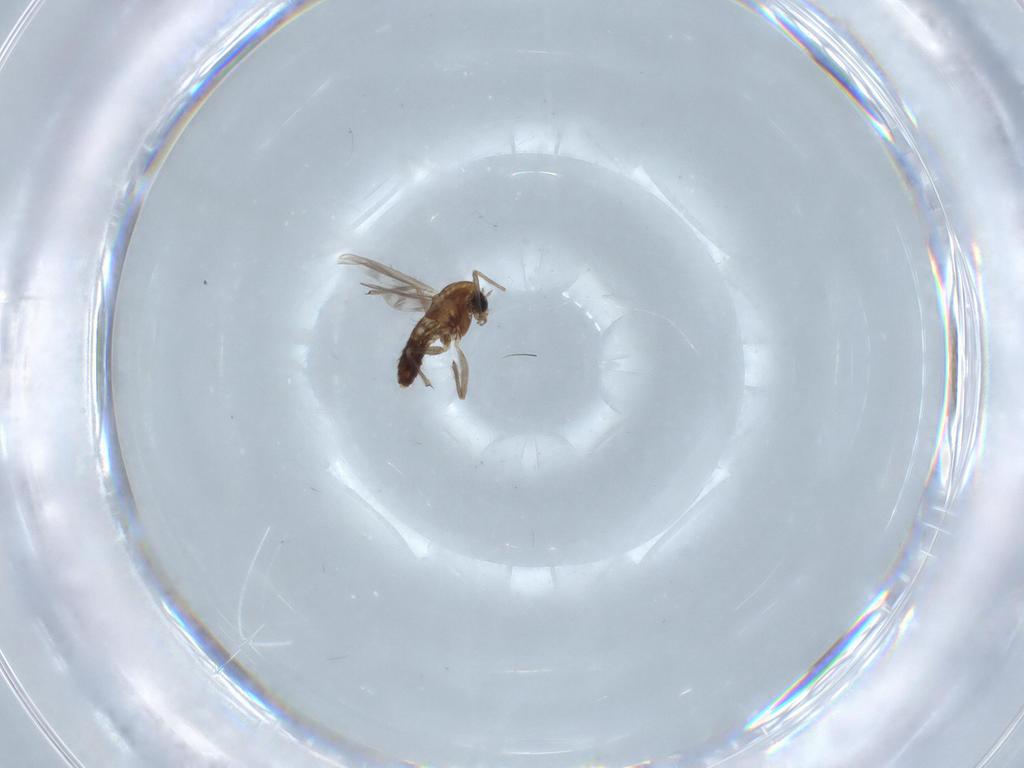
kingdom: Animalia
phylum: Arthropoda
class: Insecta
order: Diptera
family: Chironomidae
